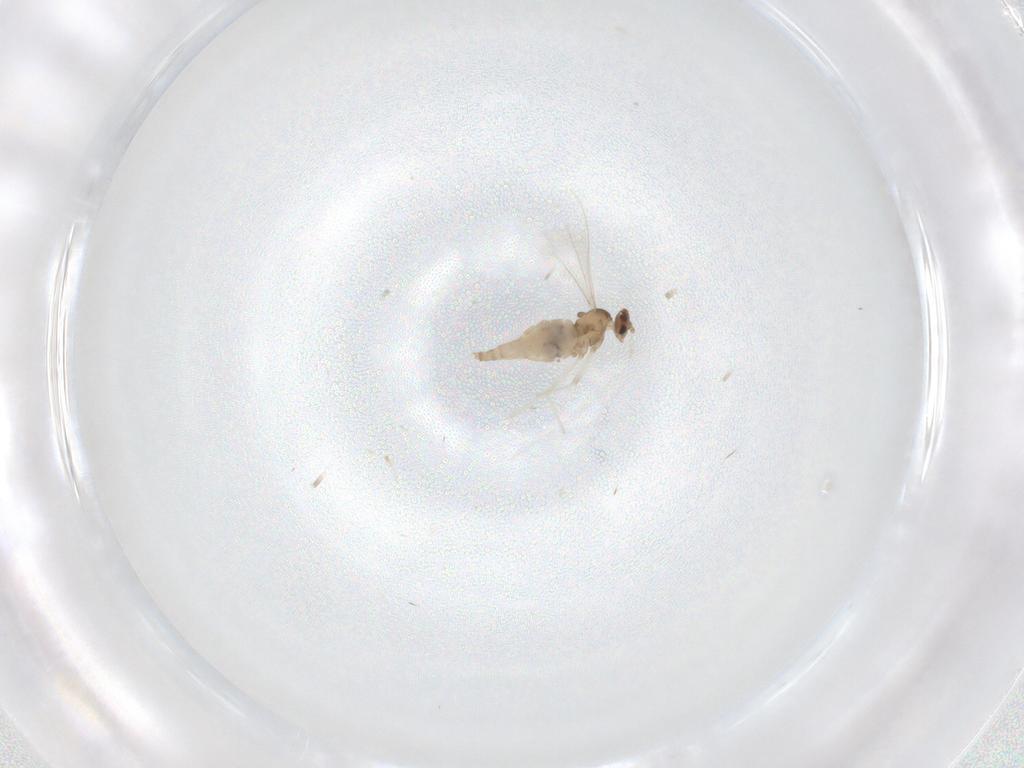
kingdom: Animalia
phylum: Arthropoda
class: Insecta
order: Diptera
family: Cecidomyiidae
